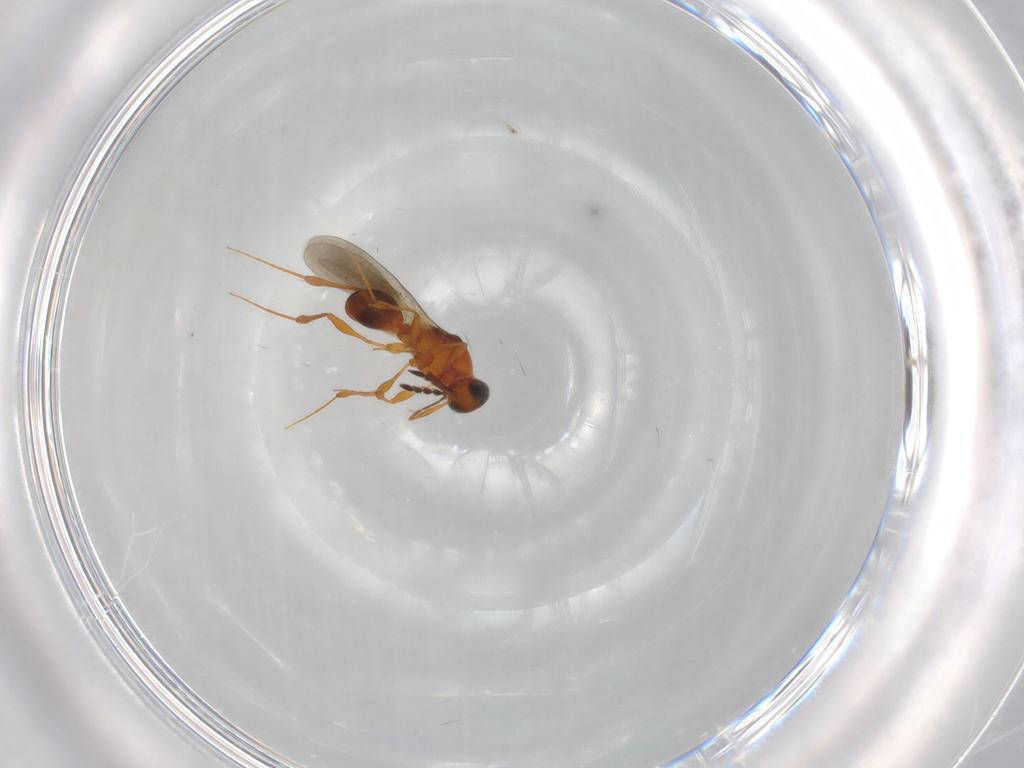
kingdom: Animalia
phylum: Arthropoda
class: Insecta
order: Hymenoptera
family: Platygastridae
